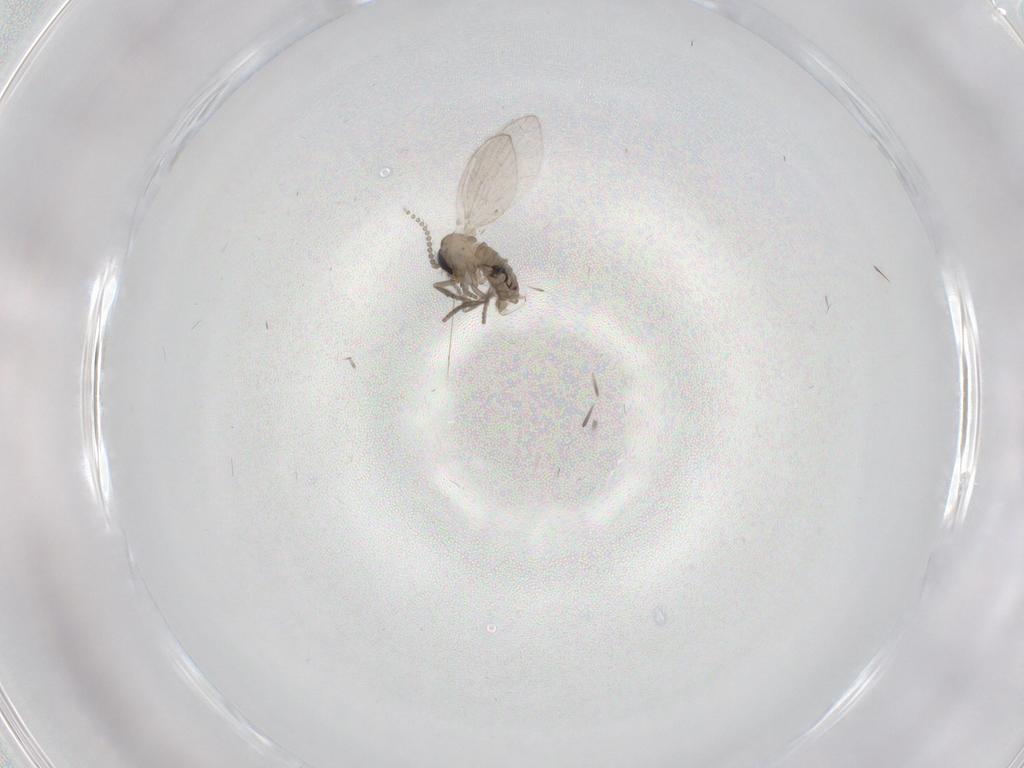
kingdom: Animalia
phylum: Arthropoda
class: Insecta
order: Diptera
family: Psychodidae
